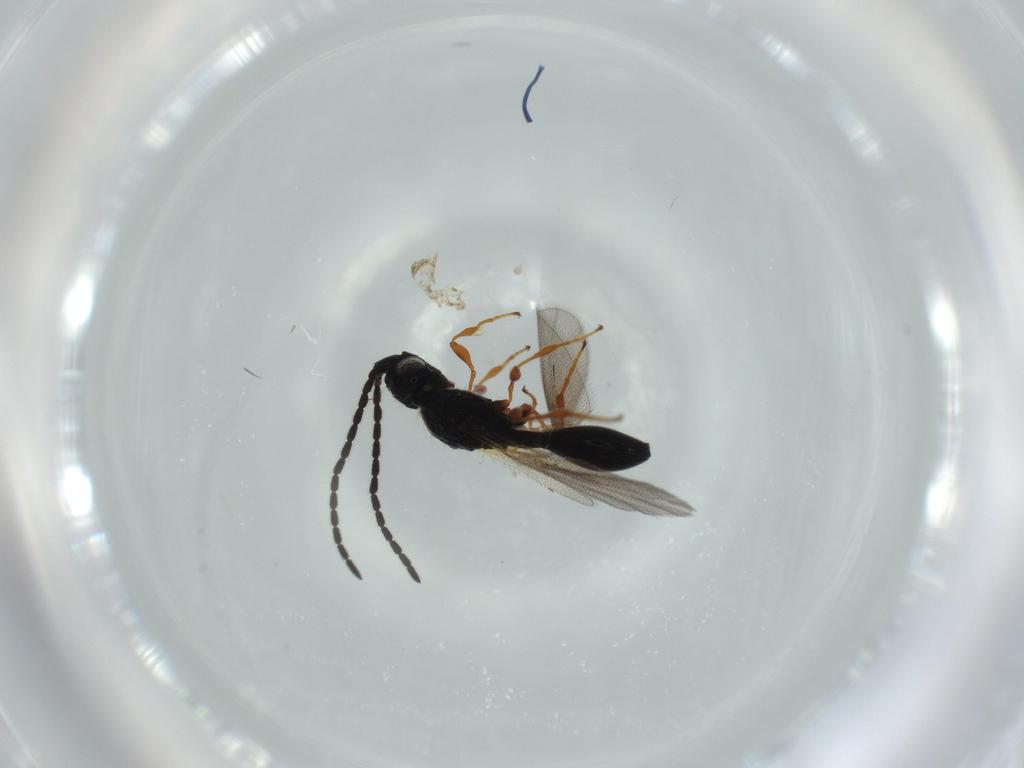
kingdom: Animalia
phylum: Arthropoda
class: Insecta
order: Hymenoptera
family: Diapriidae
